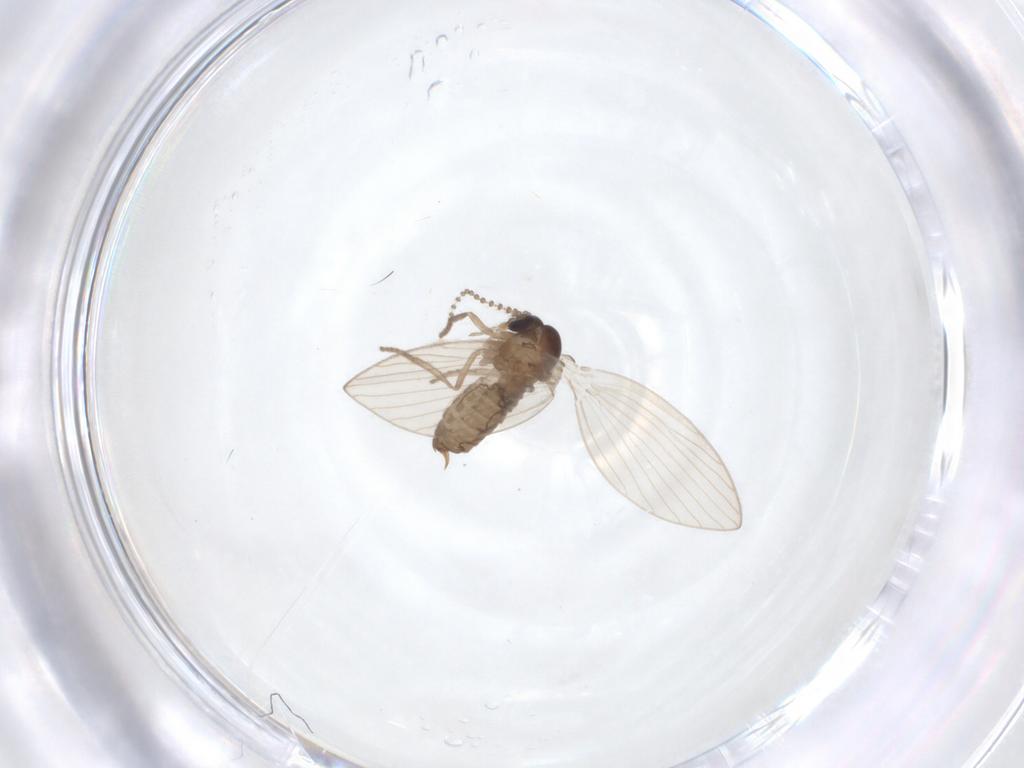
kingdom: Animalia
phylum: Arthropoda
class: Insecta
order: Diptera
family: Psychodidae
